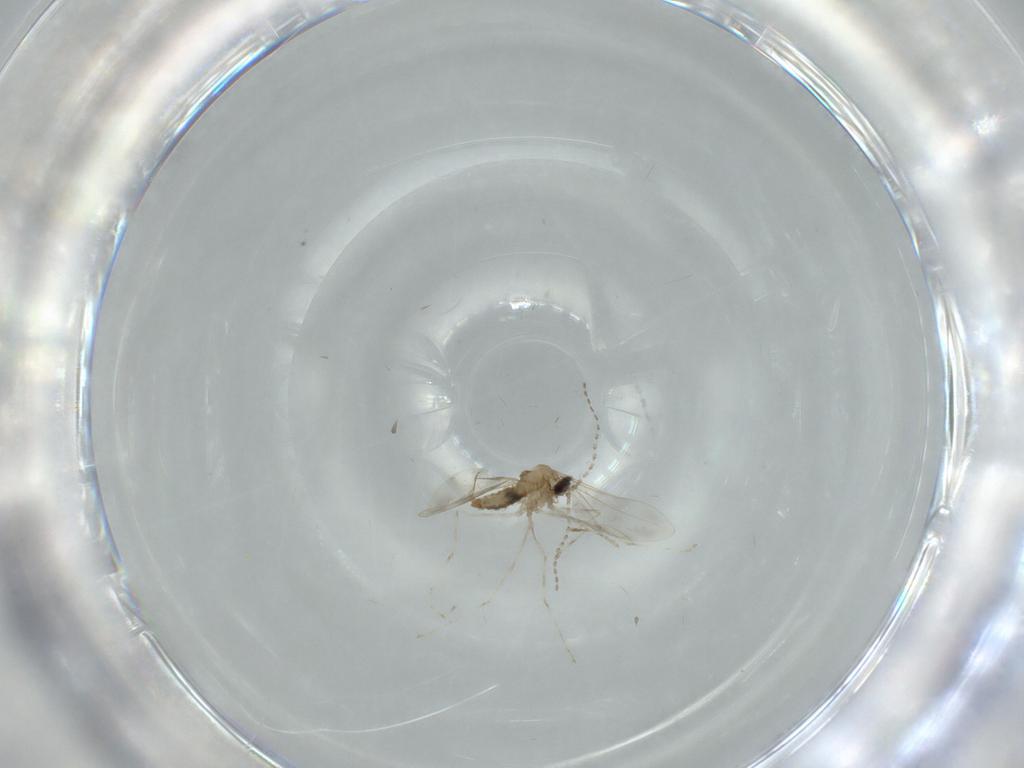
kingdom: Animalia
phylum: Arthropoda
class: Insecta
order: Diptera
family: Cecidomyiidae
